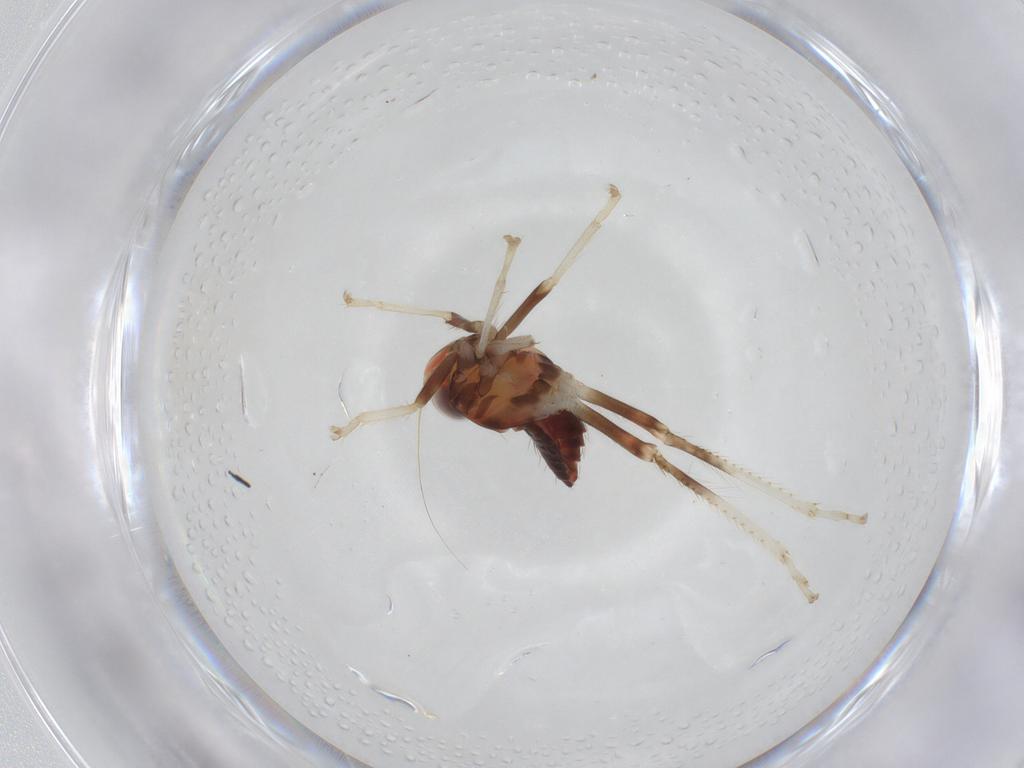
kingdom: Animalia
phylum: Arthropoda
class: Insecta
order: Hemiptera
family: Cicadellidae
